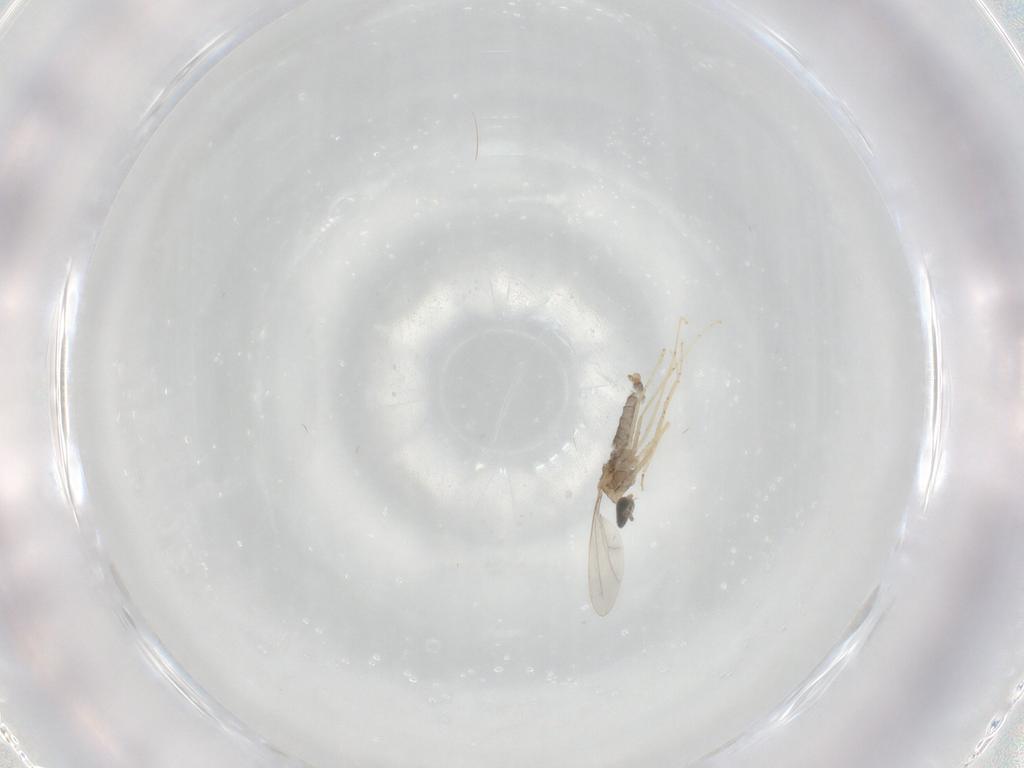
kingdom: Animalia
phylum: Arthropoda
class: Insecta
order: Diptera
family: Cecidomyiidae
